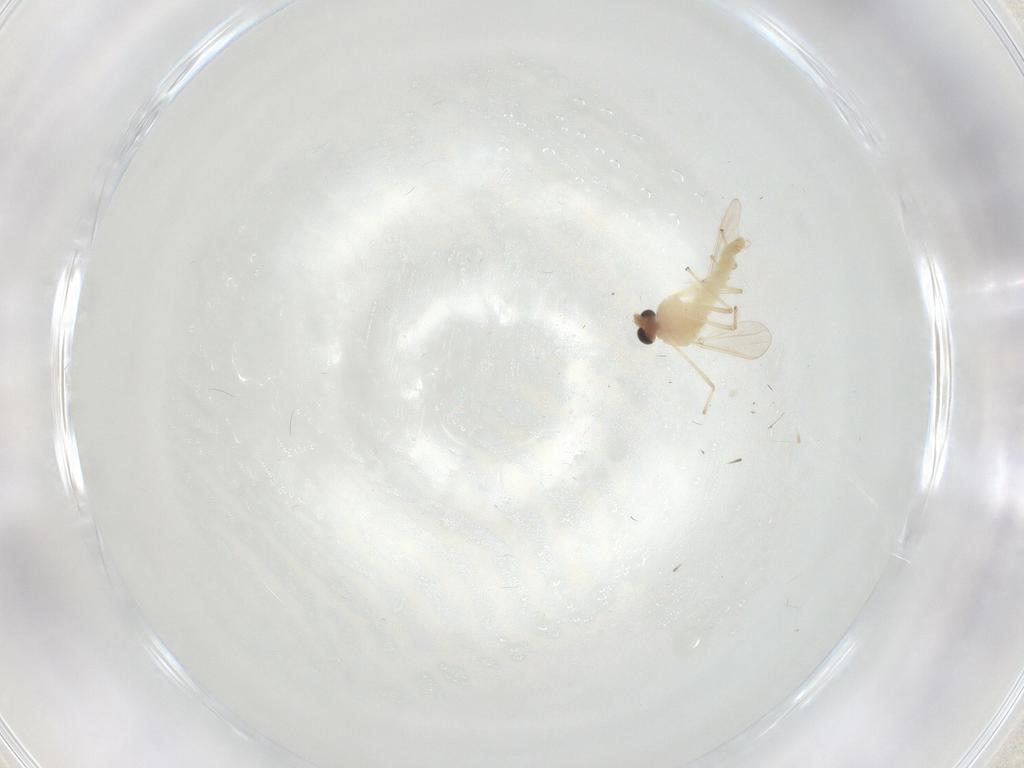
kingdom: Animalia
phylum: Arthropoda
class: Insecta
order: Diptera
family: Chironomidae
